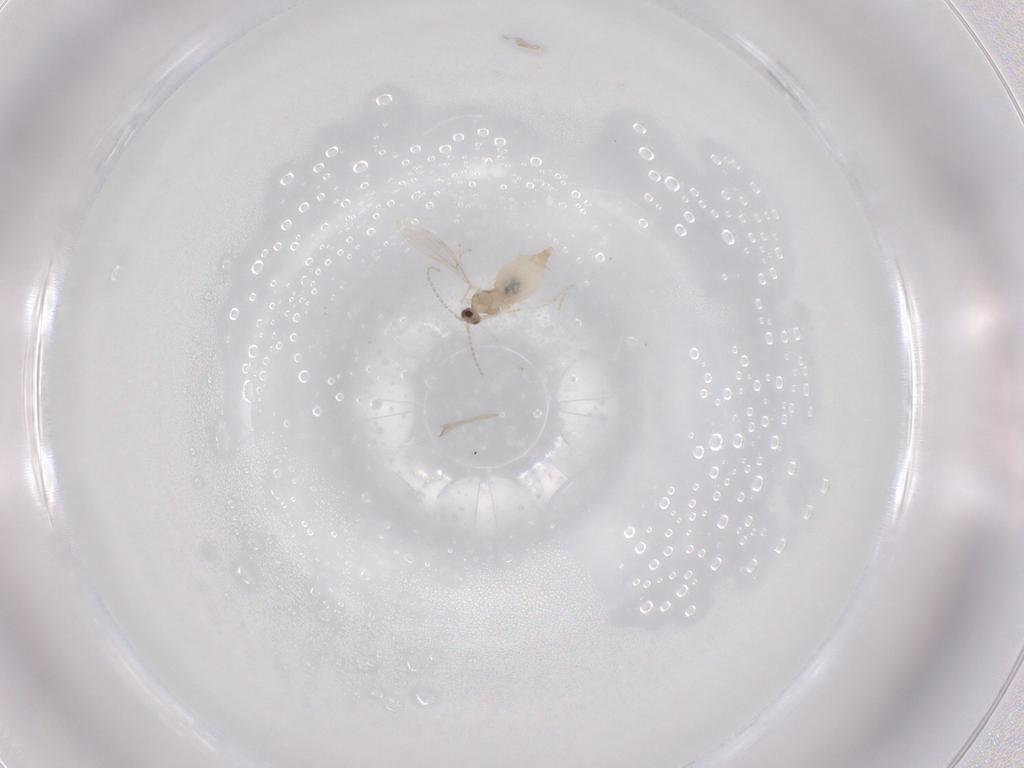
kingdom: Animalia
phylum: Arthropoda
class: Insecta
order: Diptera
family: Cecidomyiidae
